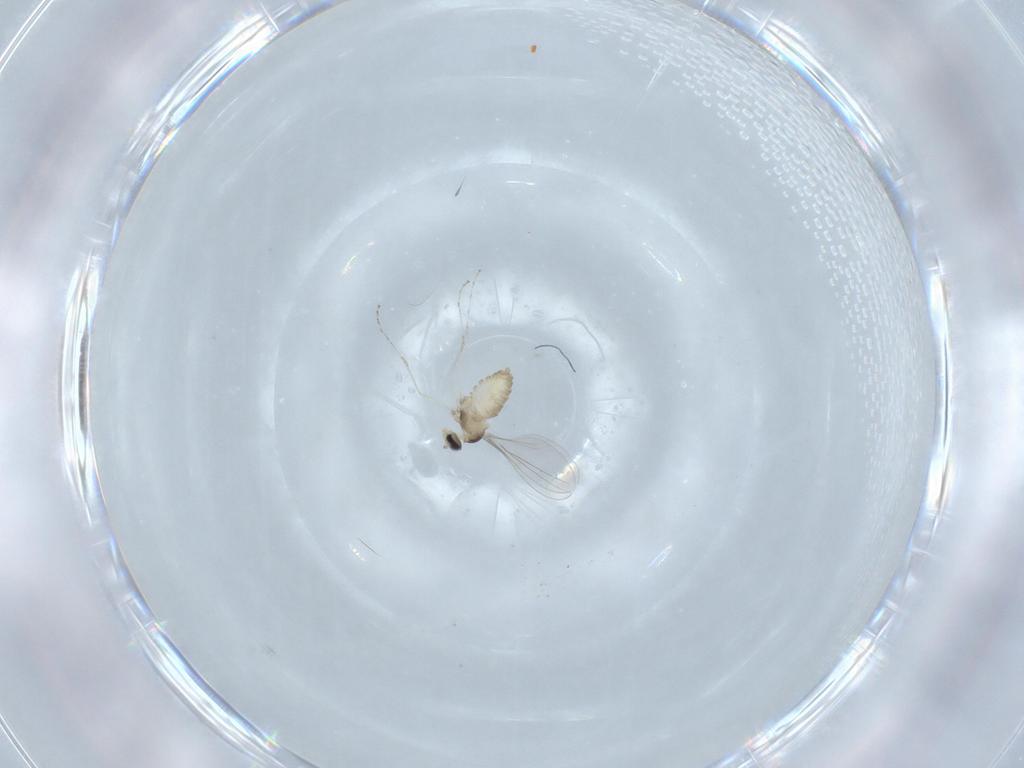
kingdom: Animalia
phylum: Arthropoda
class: Insecta
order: Diptera
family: Cecidomyiidae
